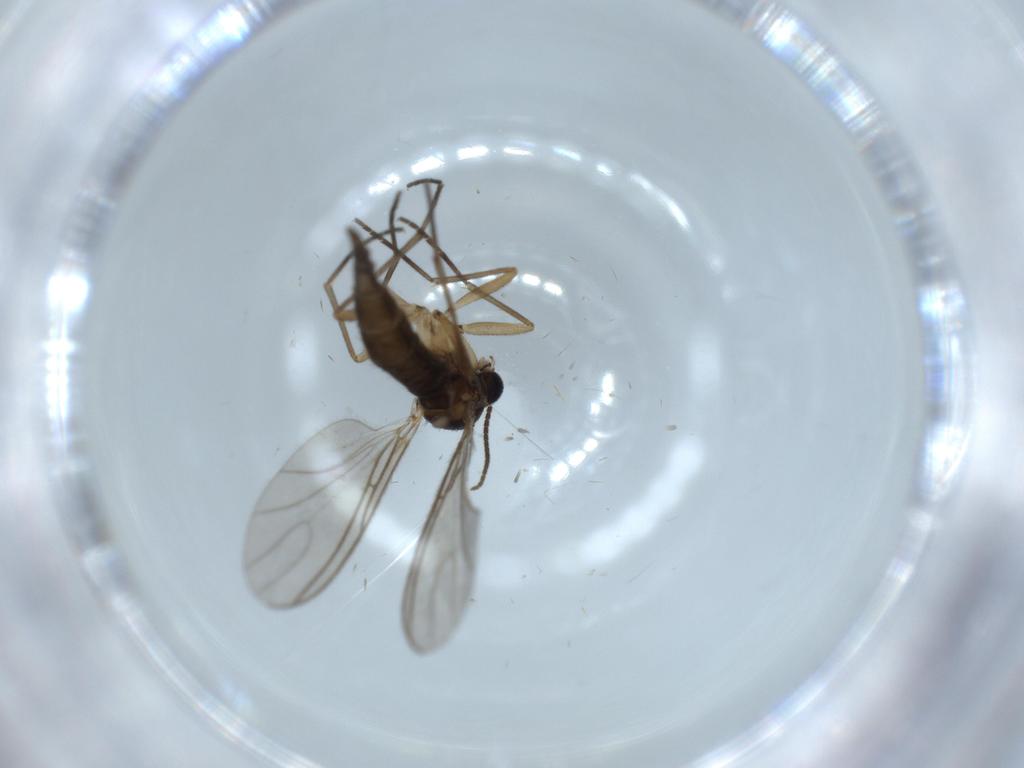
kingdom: Animalia
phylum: Arthropoda
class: Insecta
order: Diptera
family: Sciaridae
